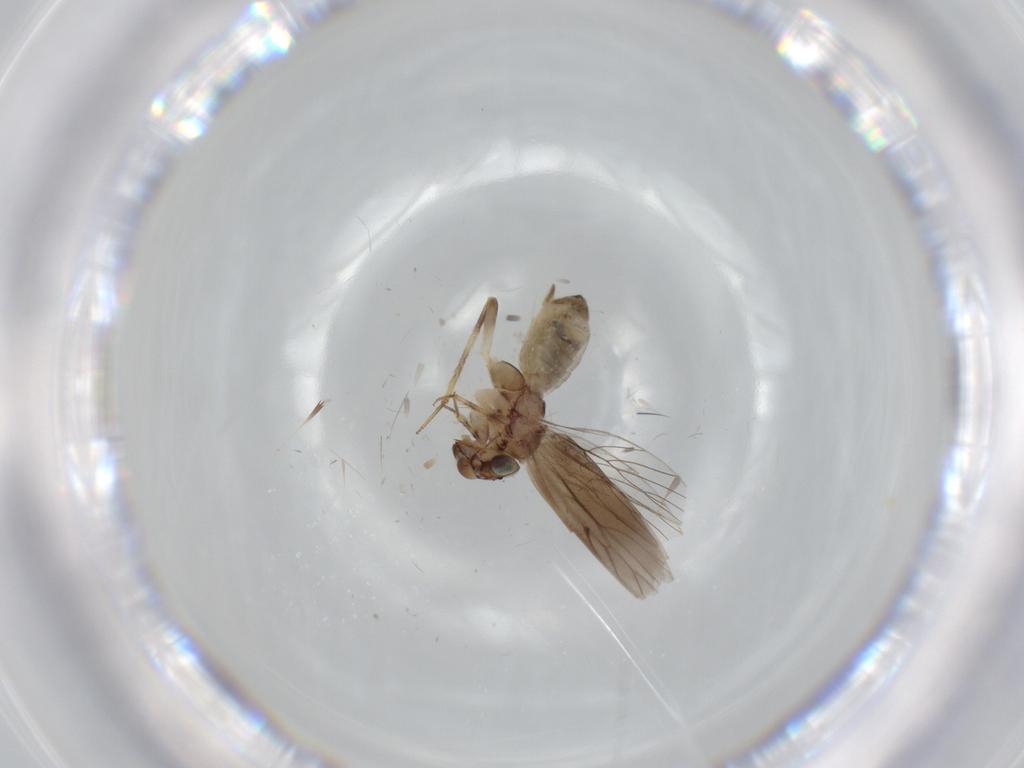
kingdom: Animalia
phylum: Arthropoda
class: Insecta
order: Psocodea
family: Lepidopsocidae
